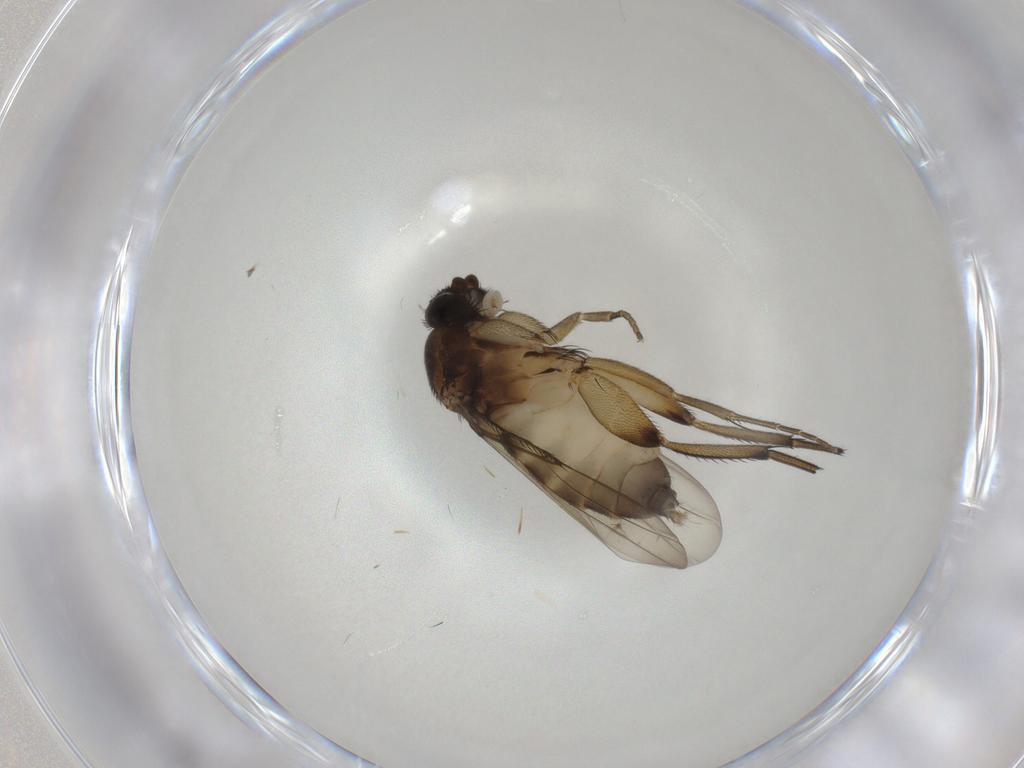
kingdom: Animalia
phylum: Arthropoda
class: Insecta
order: Diptera
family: Phoridae
